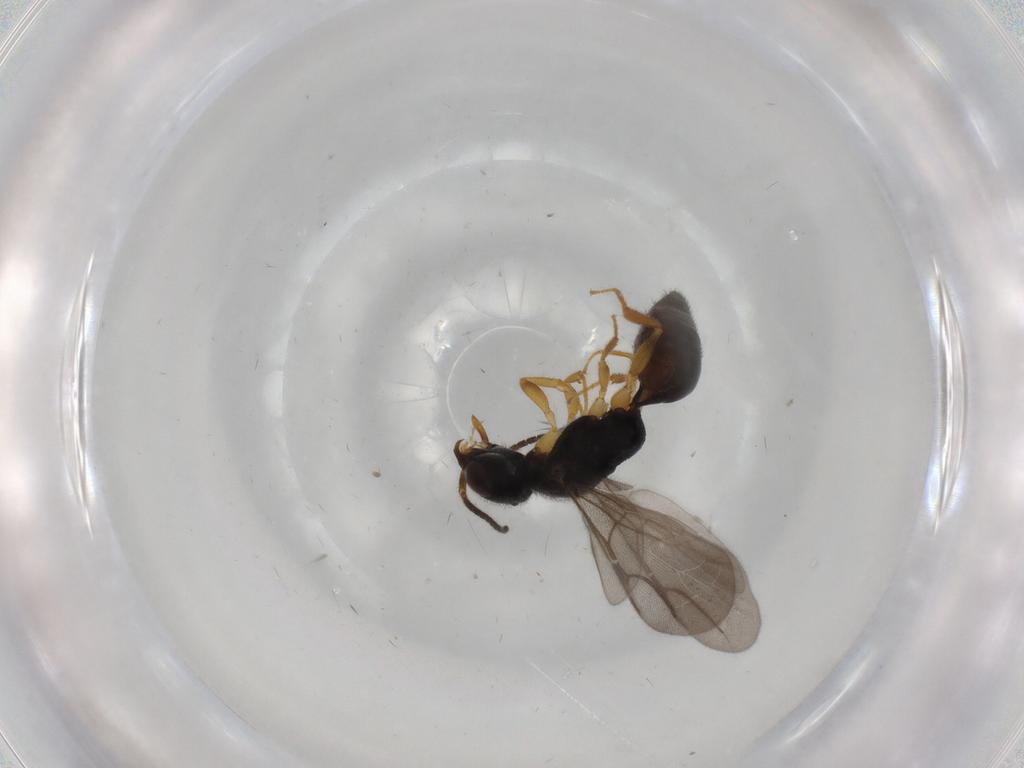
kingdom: Animalia
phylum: Arthropoda
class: Insecta
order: Hymenoptera
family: Bethylidae
